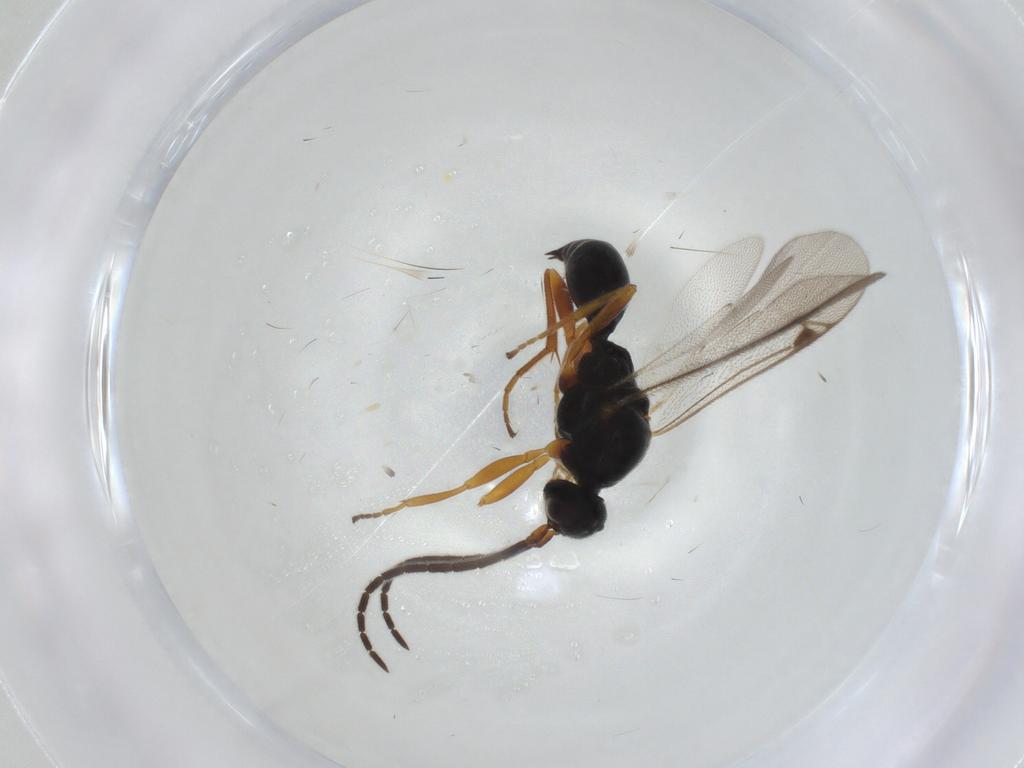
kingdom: Animalia
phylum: Arthropoda
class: Insecta
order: Hymenoptera
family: Proctotrupidae
